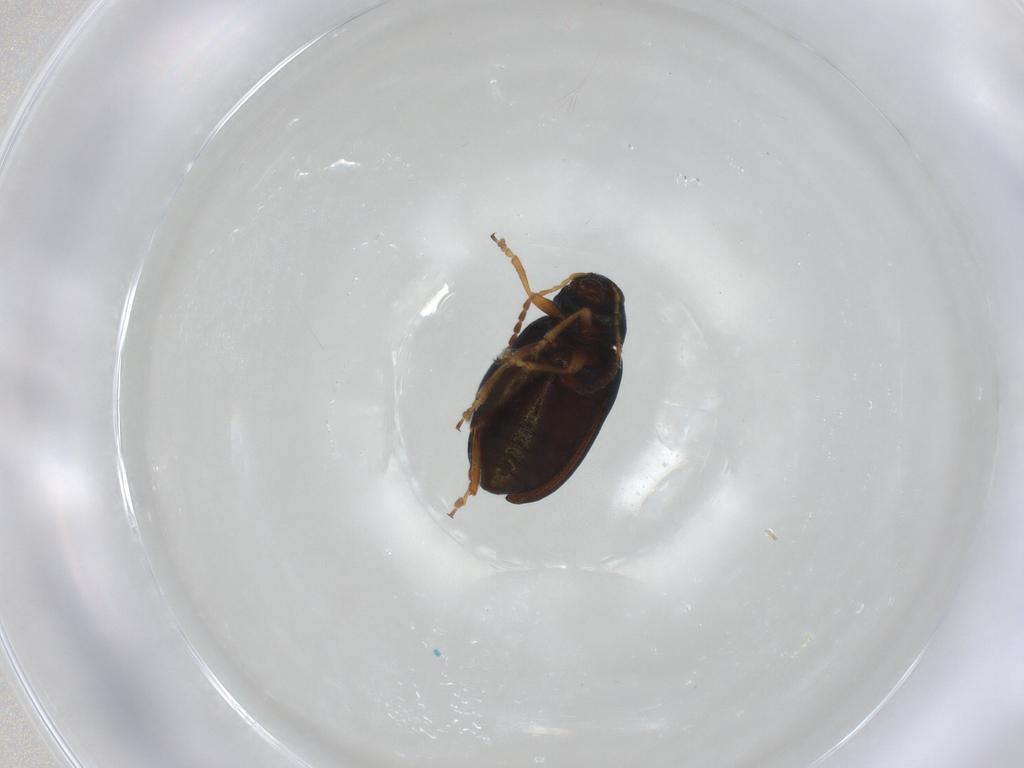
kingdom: Animalia
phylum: Arthropoda
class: Insecta
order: Coleoptera
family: Chrysomelidae
